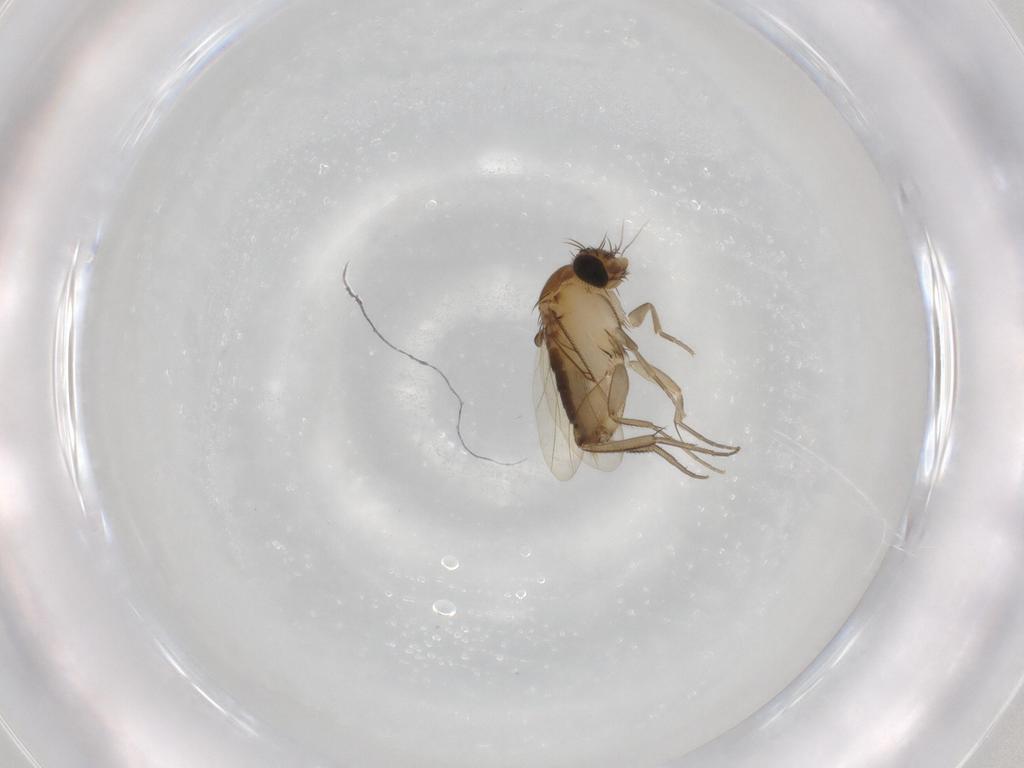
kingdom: Animalia
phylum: Arthropoda
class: Insecta
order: Diptera
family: Phoridae
